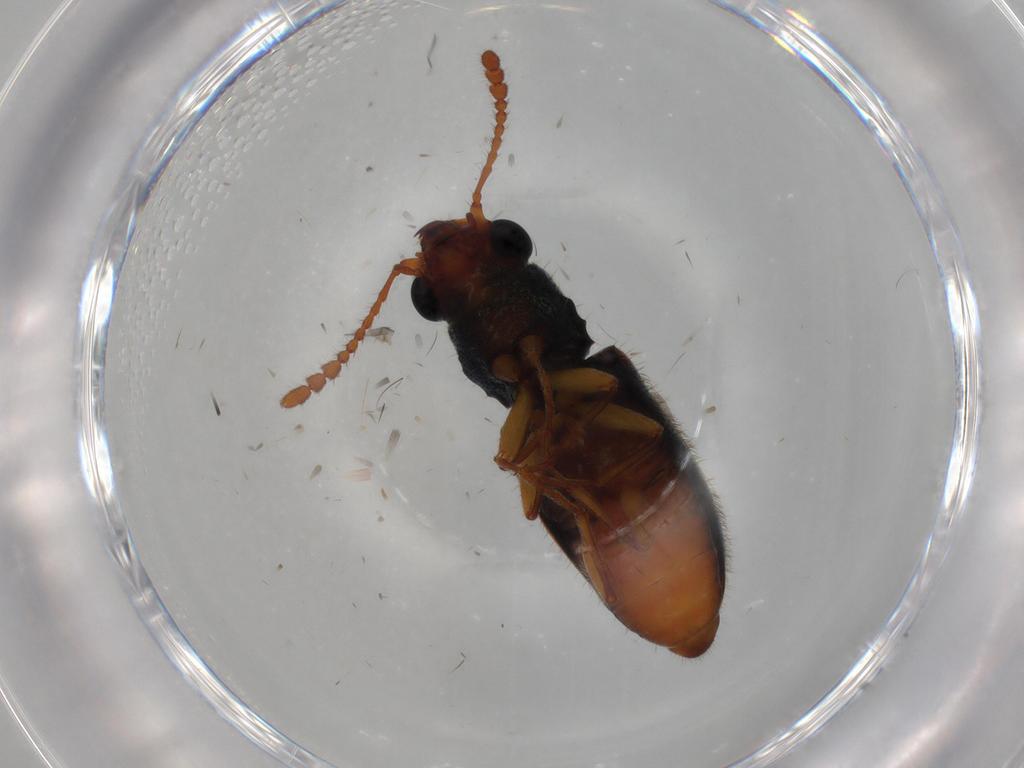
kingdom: Animalia
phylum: Arthropoda
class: Insecta
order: Coleoptera
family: Salpingidae
